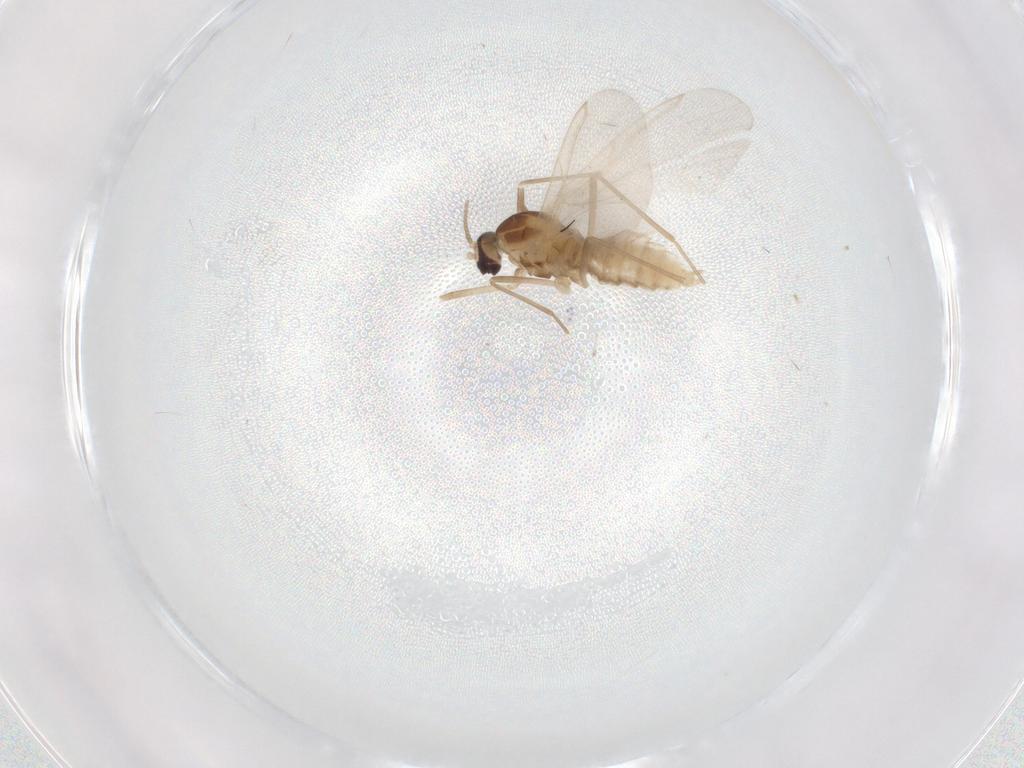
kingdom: Animalia
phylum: Arthropoda
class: Insecta
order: Diptera
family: Cecidomyiidae
